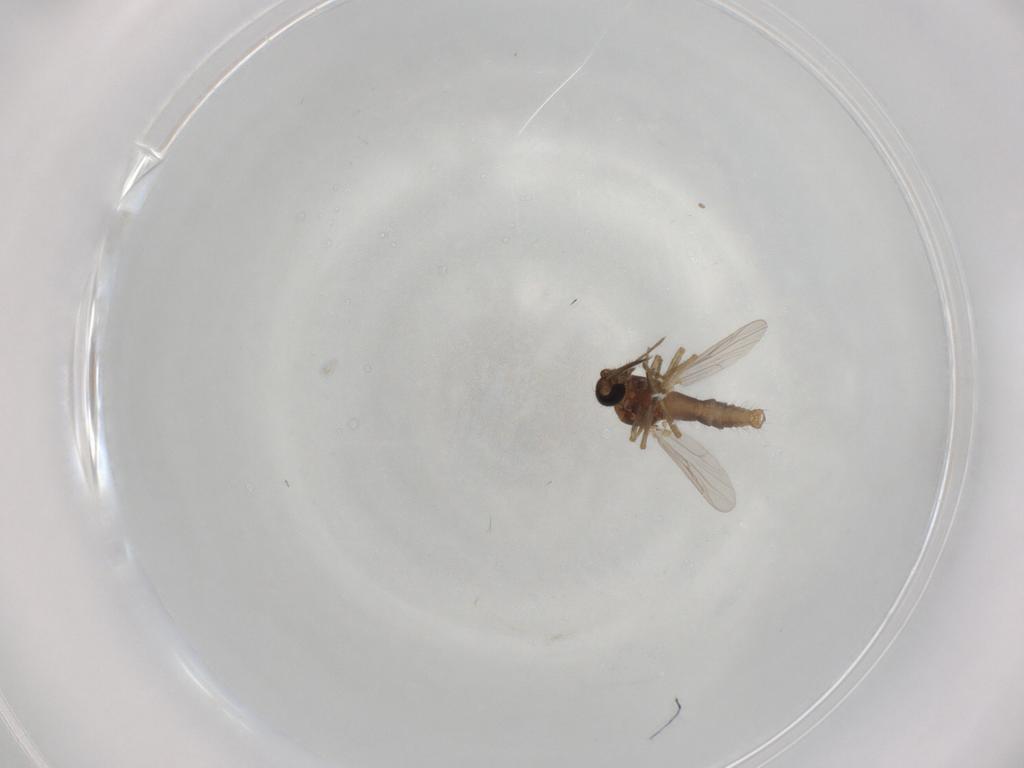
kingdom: Animalia
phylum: Arthropoda
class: Insecta
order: Diptera
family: Ceratopogonidae
